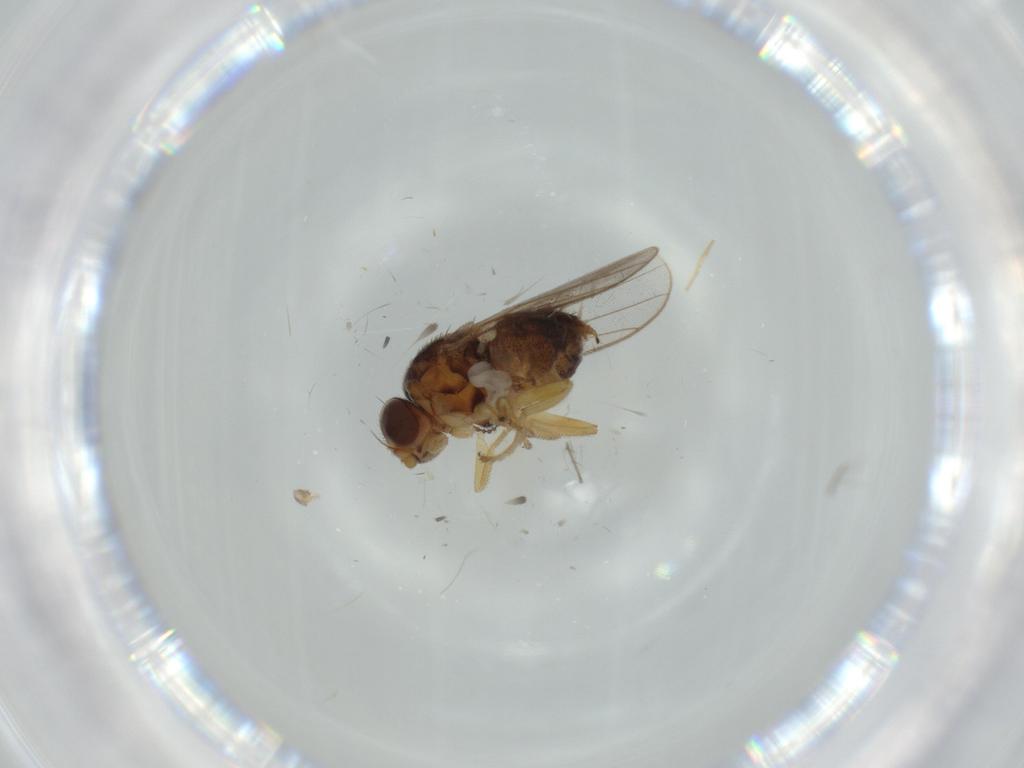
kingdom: Animalia
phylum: Arthropoda
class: Insecta
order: Diptera
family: Chloropidae
